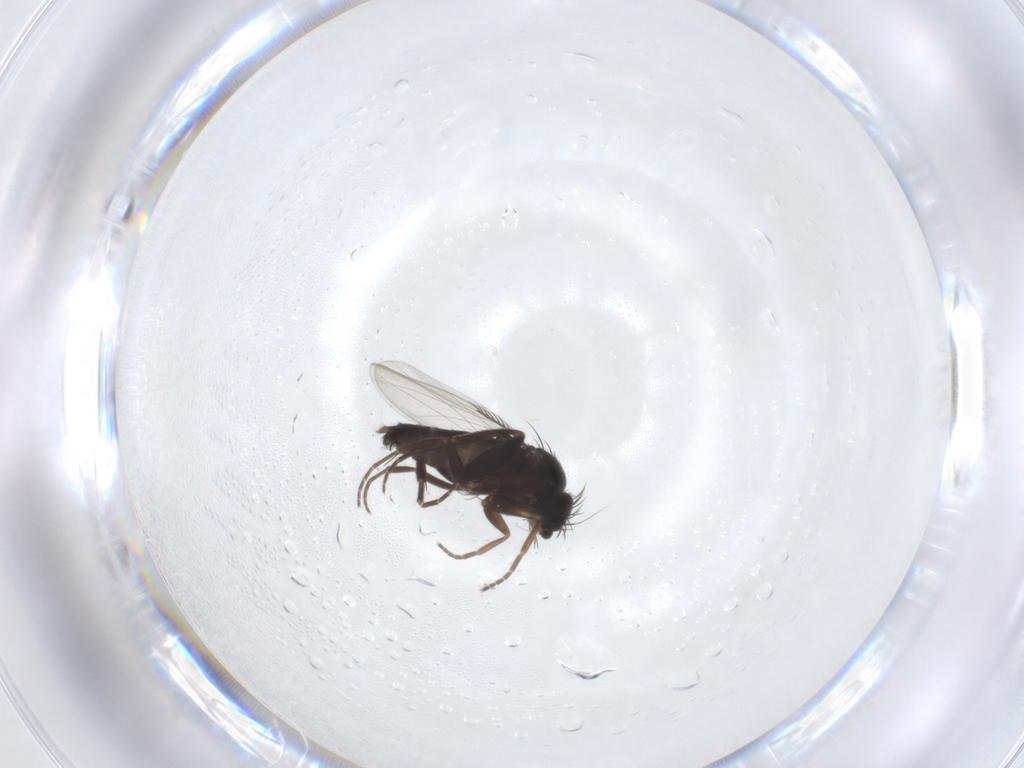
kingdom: Animalia
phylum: Arthropoda
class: Insecta
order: Diptera
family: Phoridae
